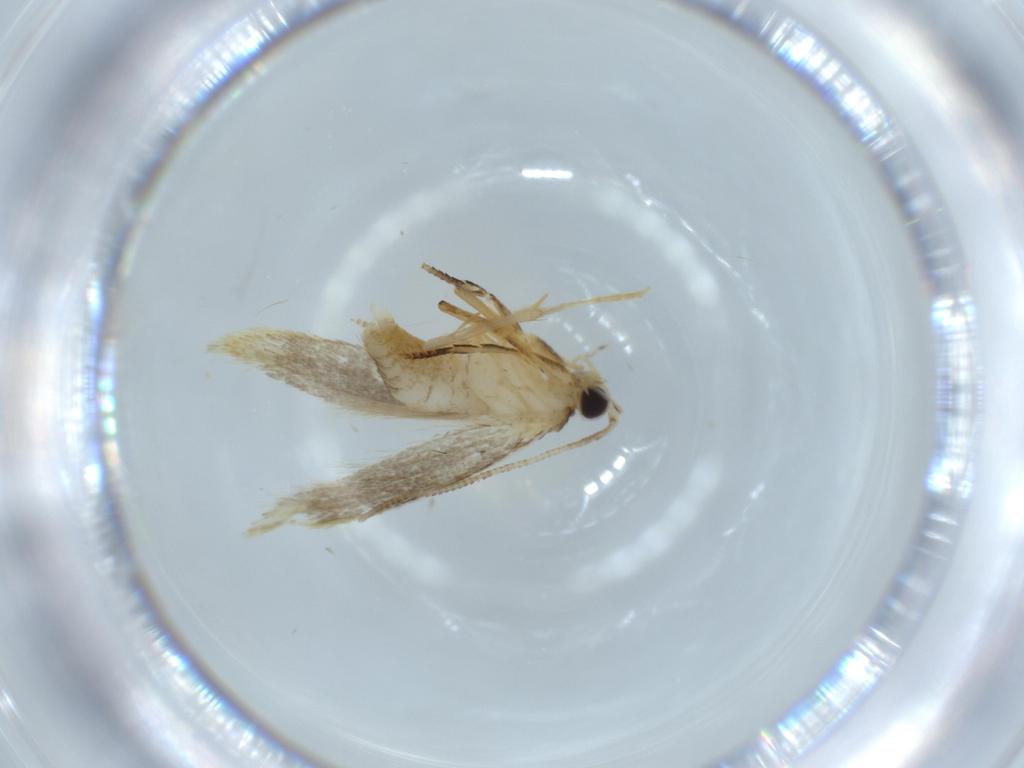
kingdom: Animalia
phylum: Arthropoda
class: Insecta
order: Lepidoptera
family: Tineidae
